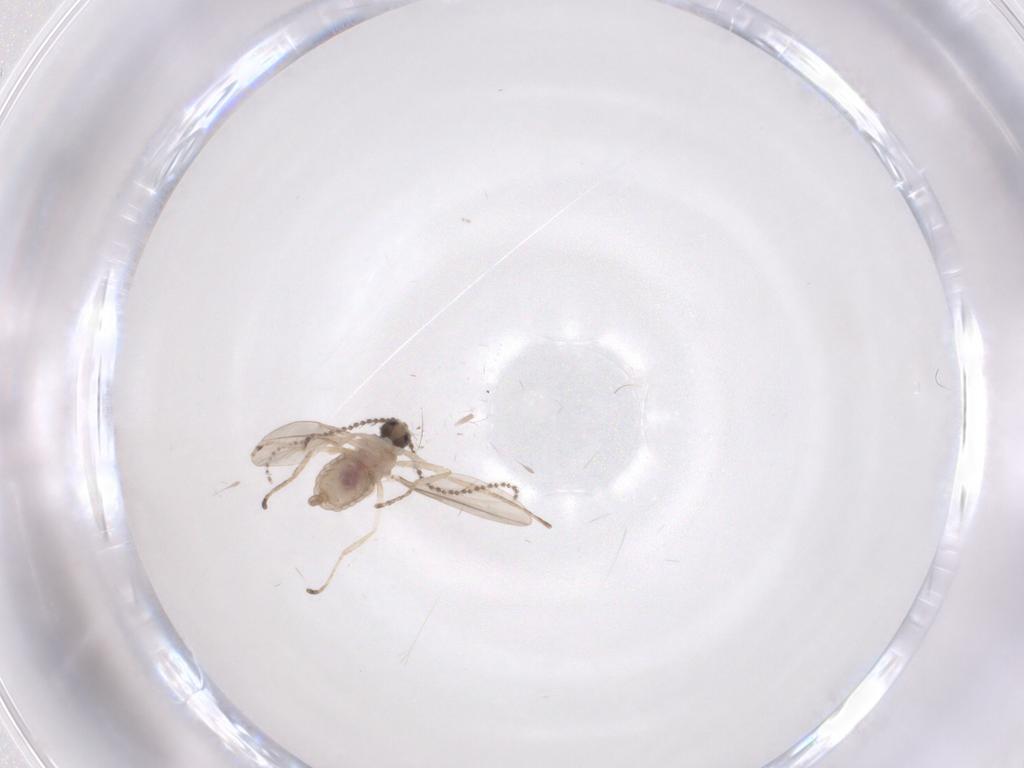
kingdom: Animalia
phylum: Arthropoda
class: Insecta
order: Diptera
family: Cecidomyiidae
